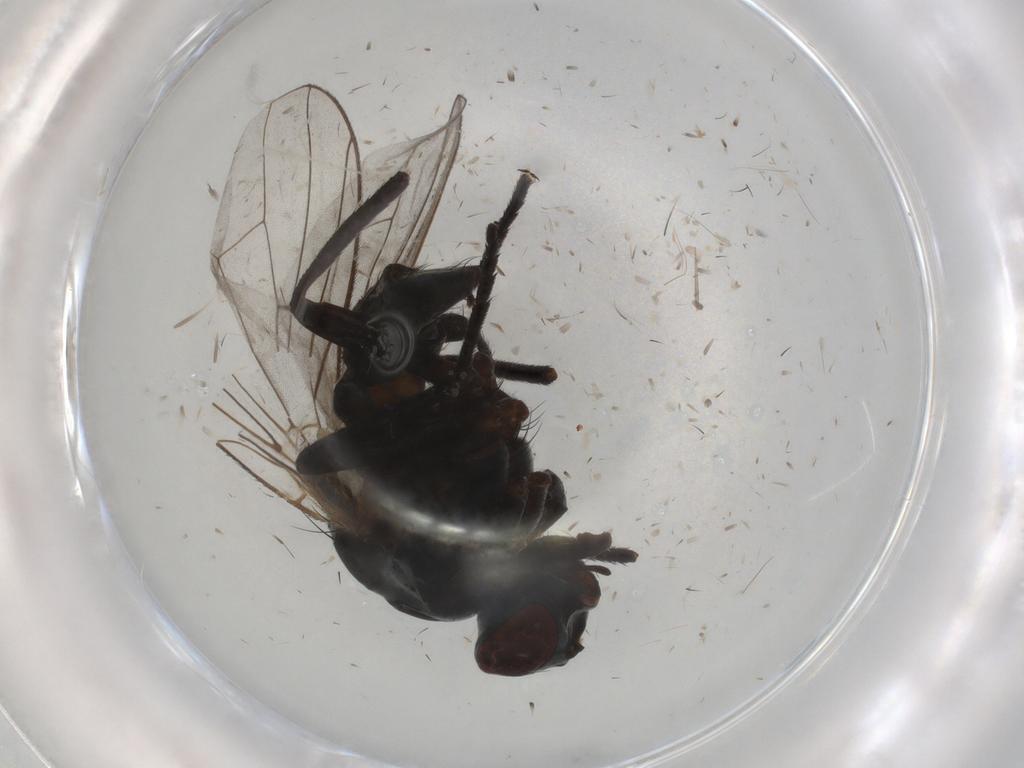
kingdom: Animalia
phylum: Arthropoda
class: Insecta
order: Diptera
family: Anthomyiidae
